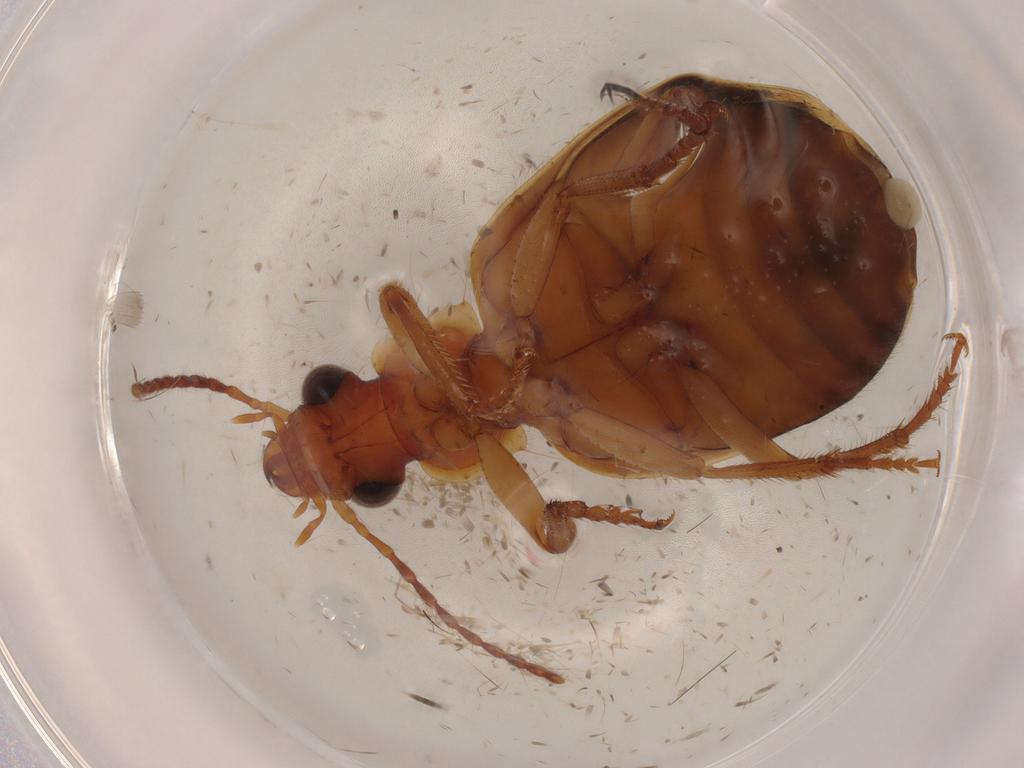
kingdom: Animalia
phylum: Arthropoda
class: Insecta
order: Coleoptera
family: Carabidae
